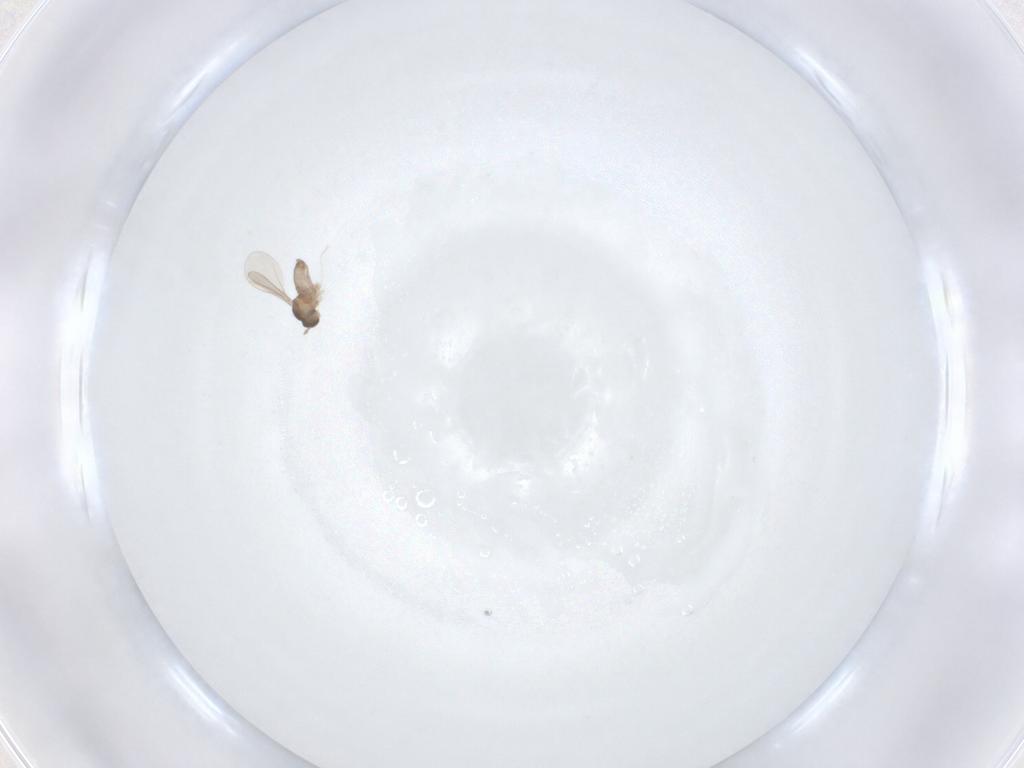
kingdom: Animalia
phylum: Arthropoda
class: Insecta
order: Diptera
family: Cecidomyiidae
